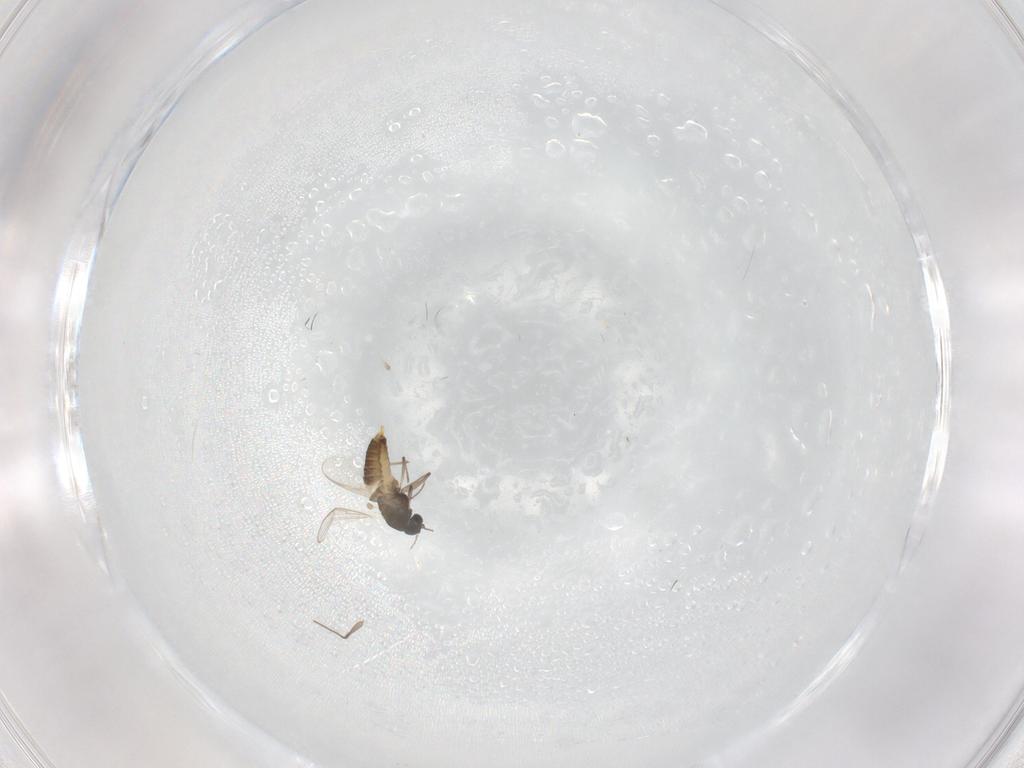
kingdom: Animalia
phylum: Arthropoda
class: Insecta
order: Diptera
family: Chironomidae
